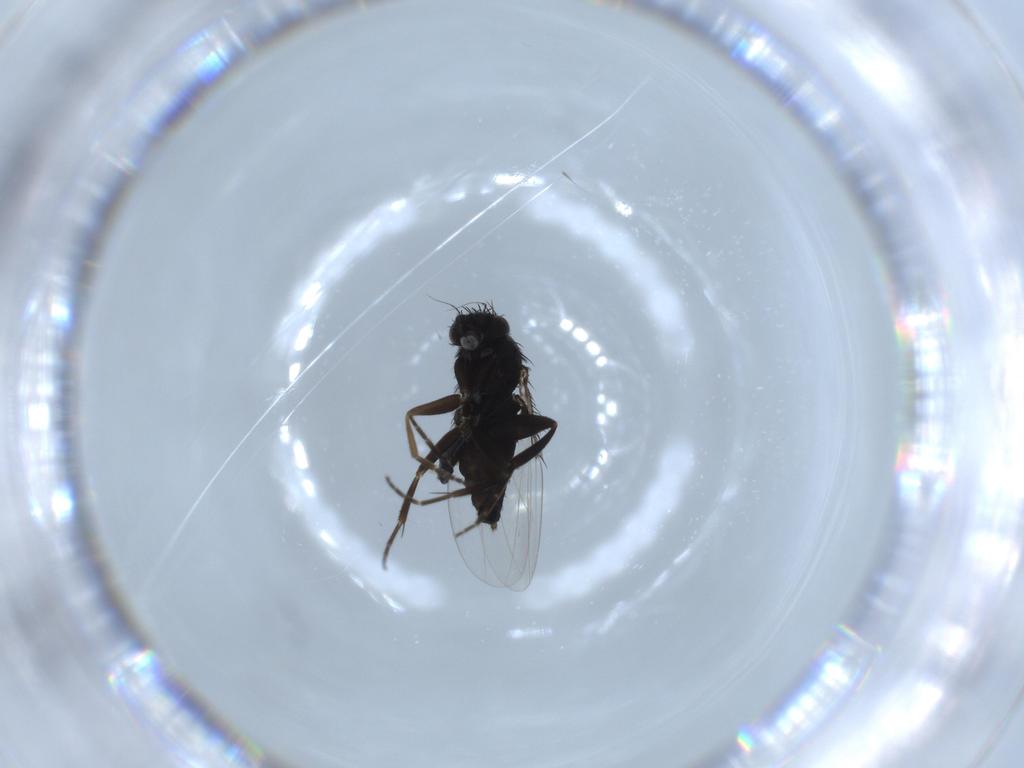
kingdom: Animalia
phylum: Arthropoda
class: Insecta
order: Diptera
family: Phoridae
